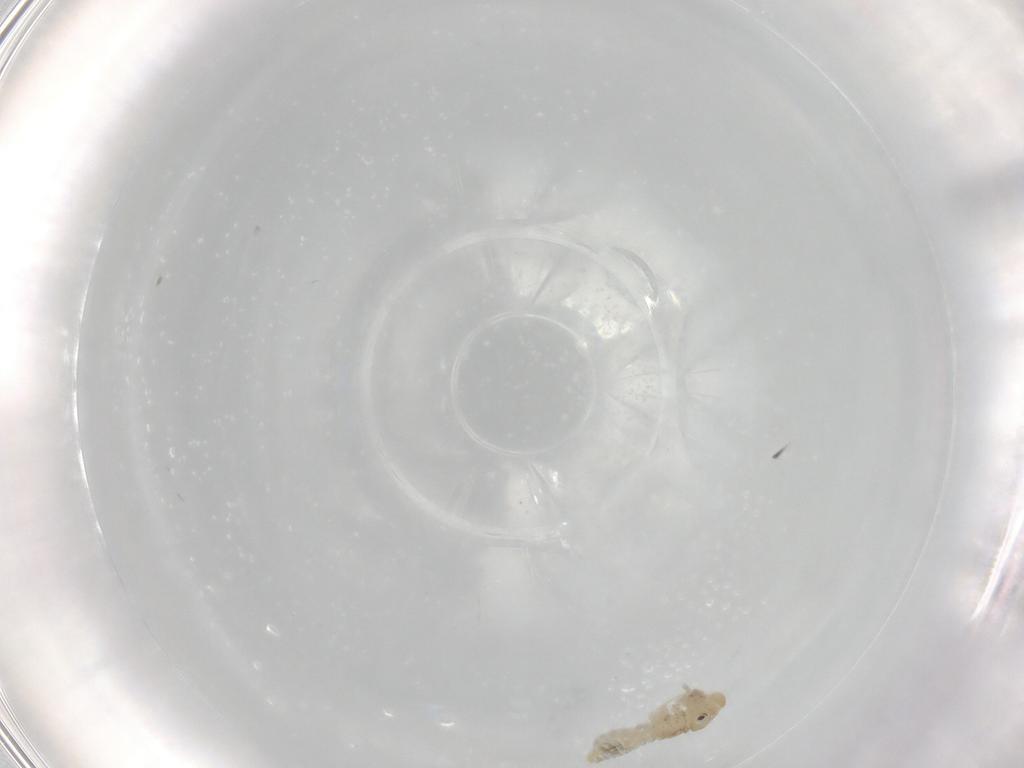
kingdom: Animalia
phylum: Arthropoda
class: Insecta
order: Psocodea
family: Caeciliusidae
